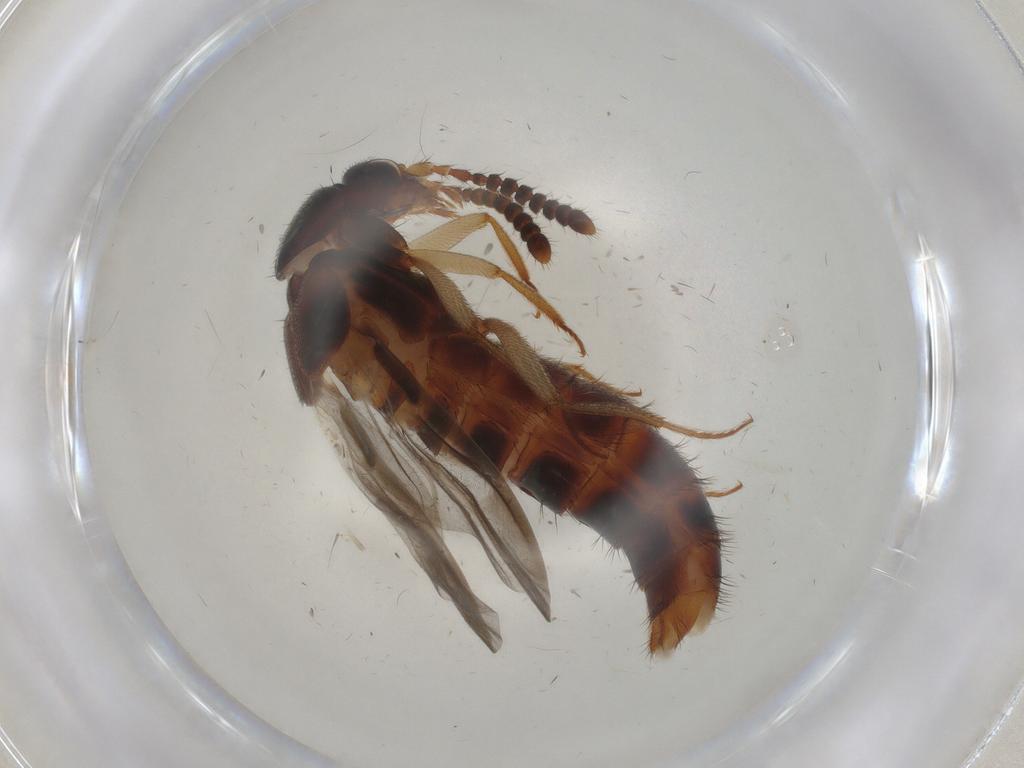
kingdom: Animalia
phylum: Arthropoda
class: Insecta
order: Coleoptera
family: Staphylinidae
